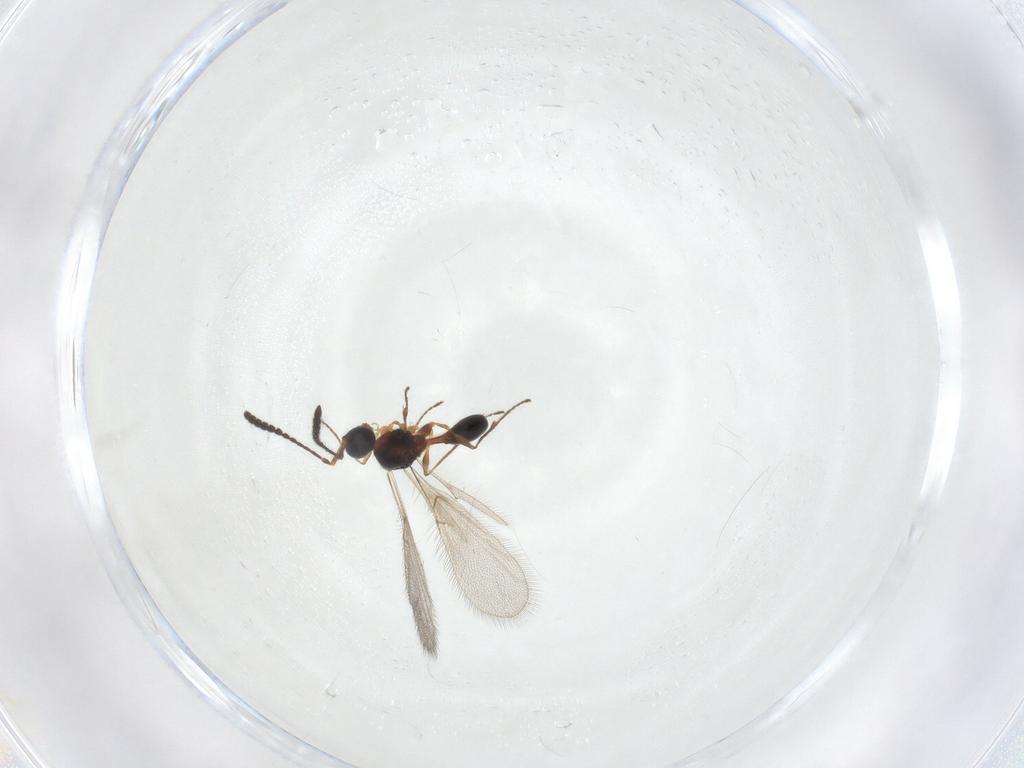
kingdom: Animalia
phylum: Arthropoda
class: Insecta
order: Hymenoptera
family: Diapriidae
